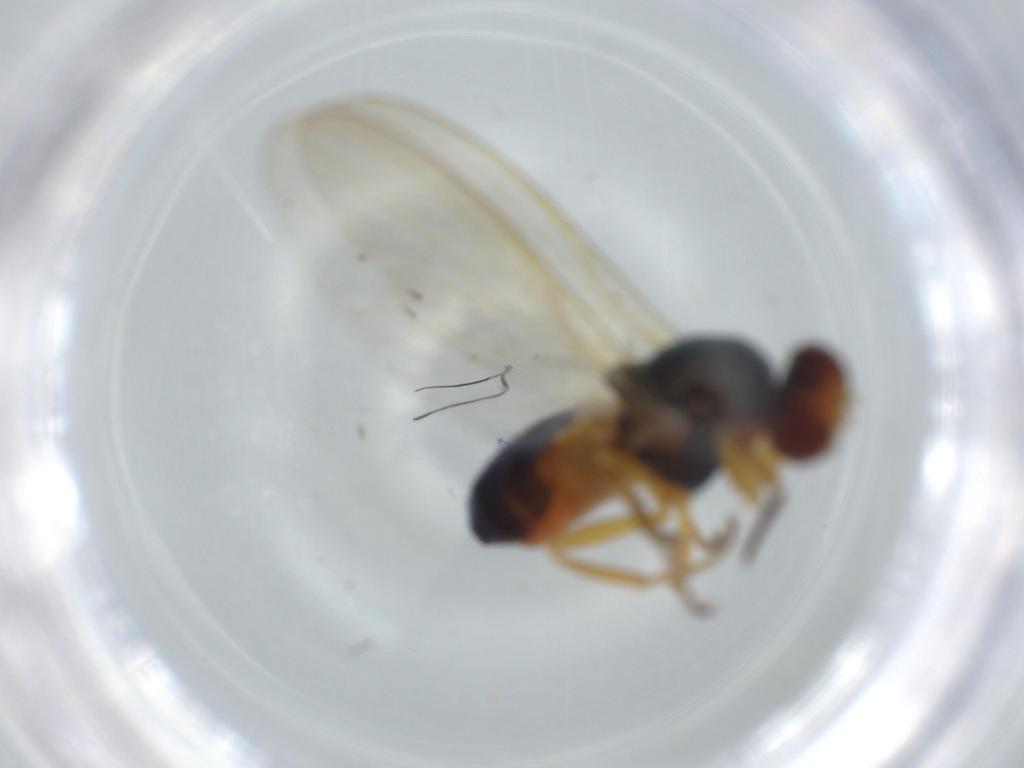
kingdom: Animalia
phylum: Arthropoda
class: Insecta
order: Diptera
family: Piophilidae
